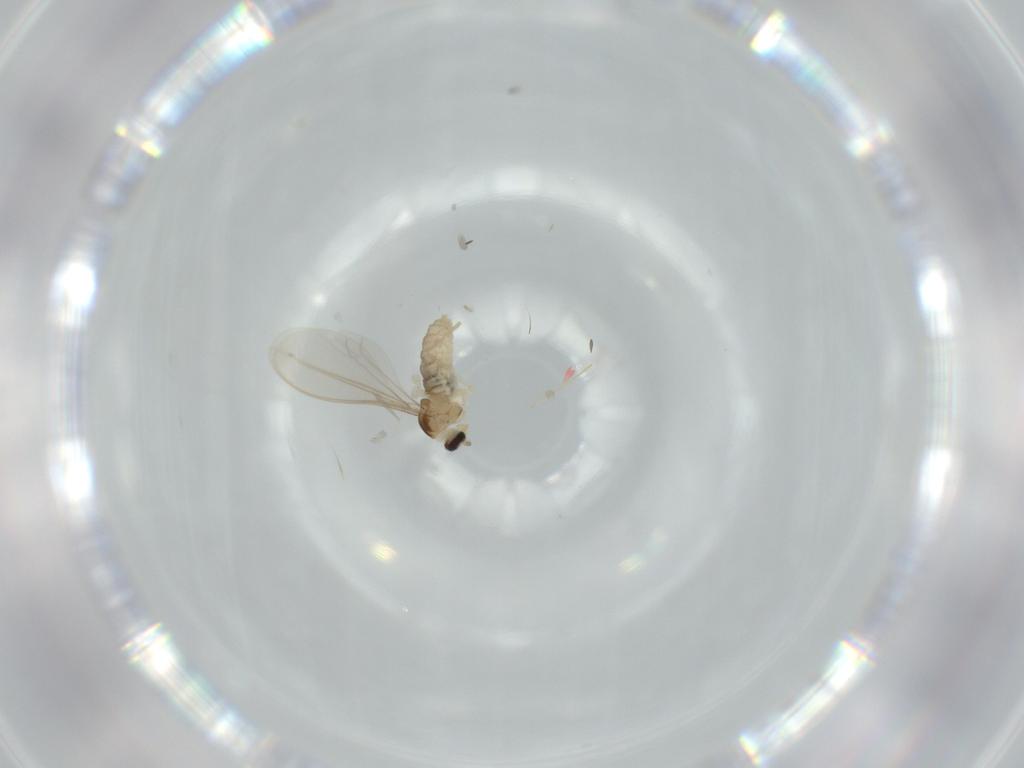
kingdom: Animalia
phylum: Arthropoda
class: Insecta
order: Diptera
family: Cecidomyiidae
